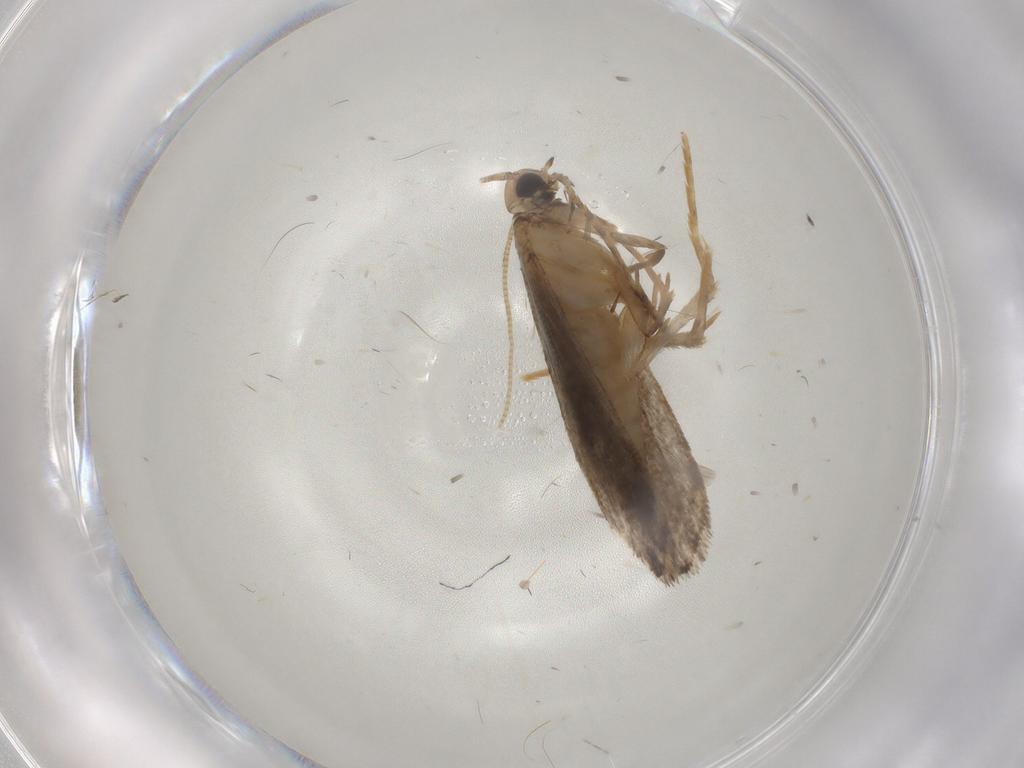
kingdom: Animalia
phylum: Arthropoda
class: Insecta
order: Lepidoptera
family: Tineidae
